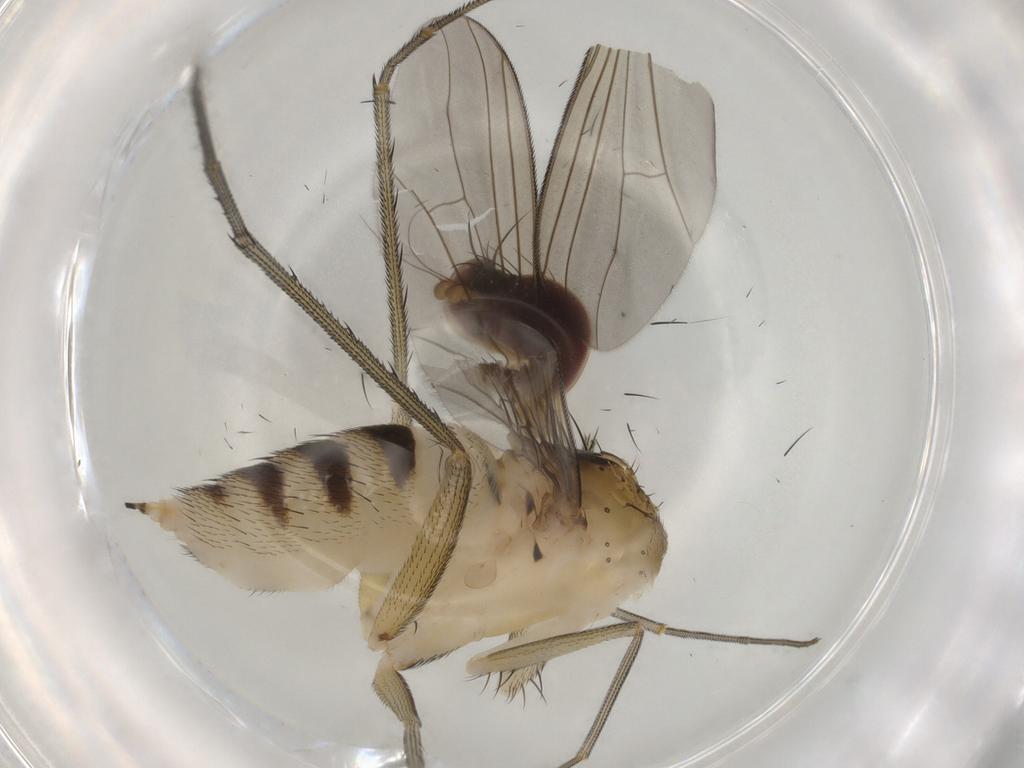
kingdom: Animalia
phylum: Arthropoda
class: Insecta
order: Diptera
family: Dolichopodidae
